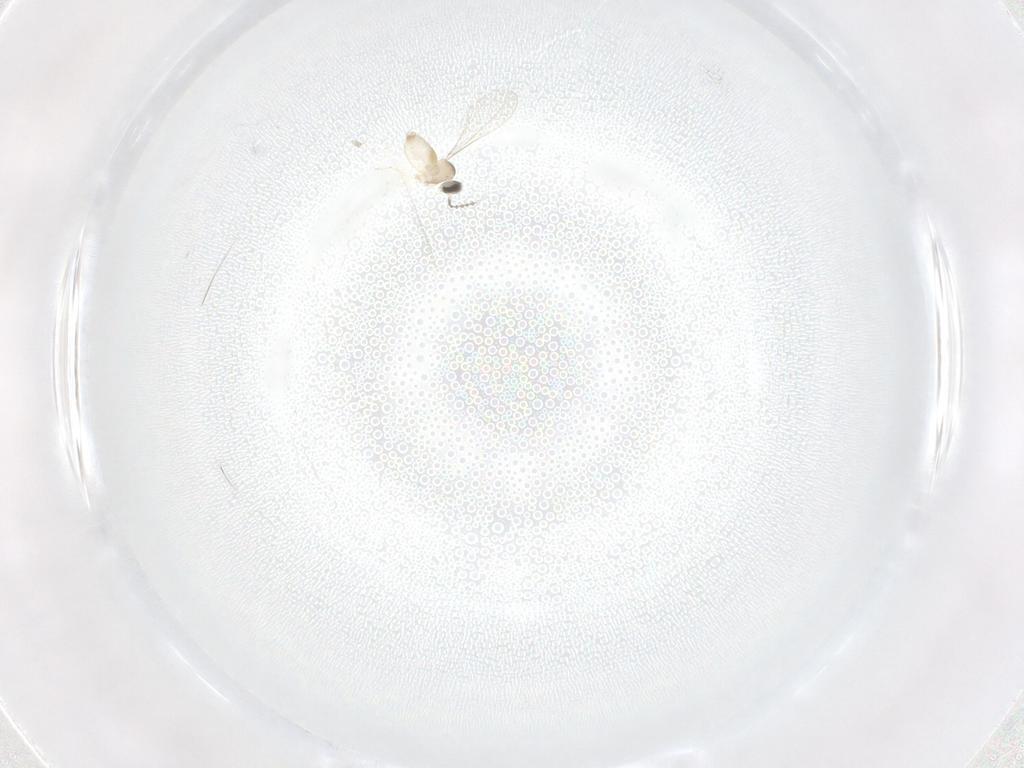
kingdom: Animalia
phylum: Arthropoda
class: Insecta
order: Diptera
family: Cecidomyiidae
